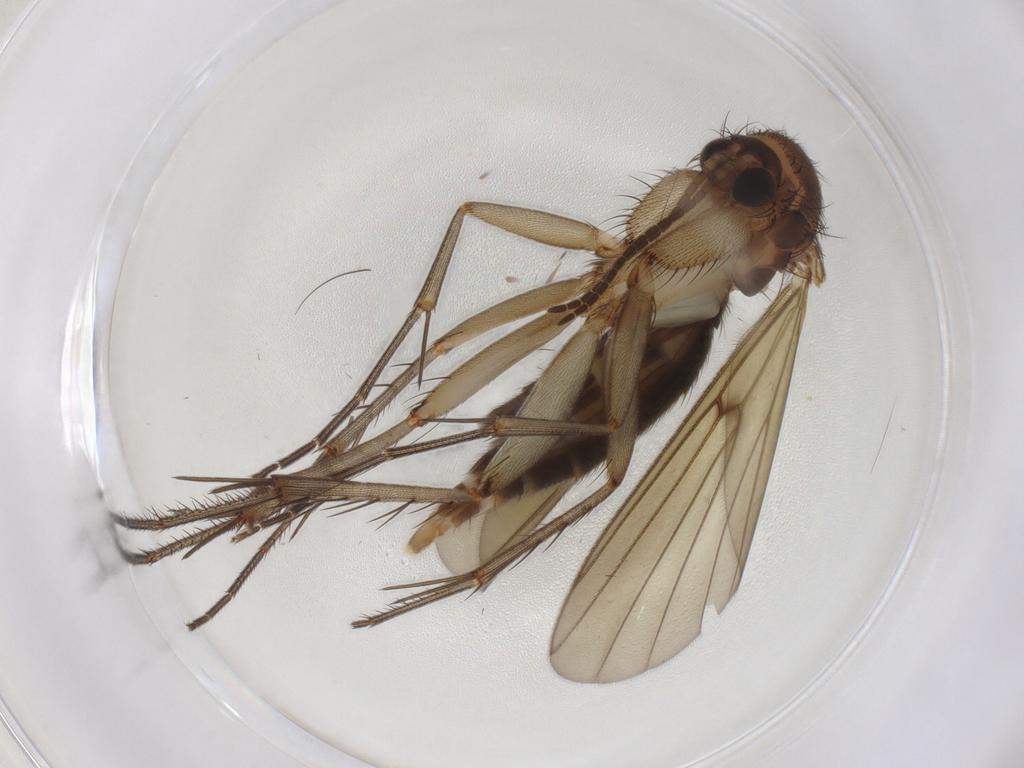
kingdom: Animalia
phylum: Arthropoda
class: Insecta
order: Diptera
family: Mycetophilidae
